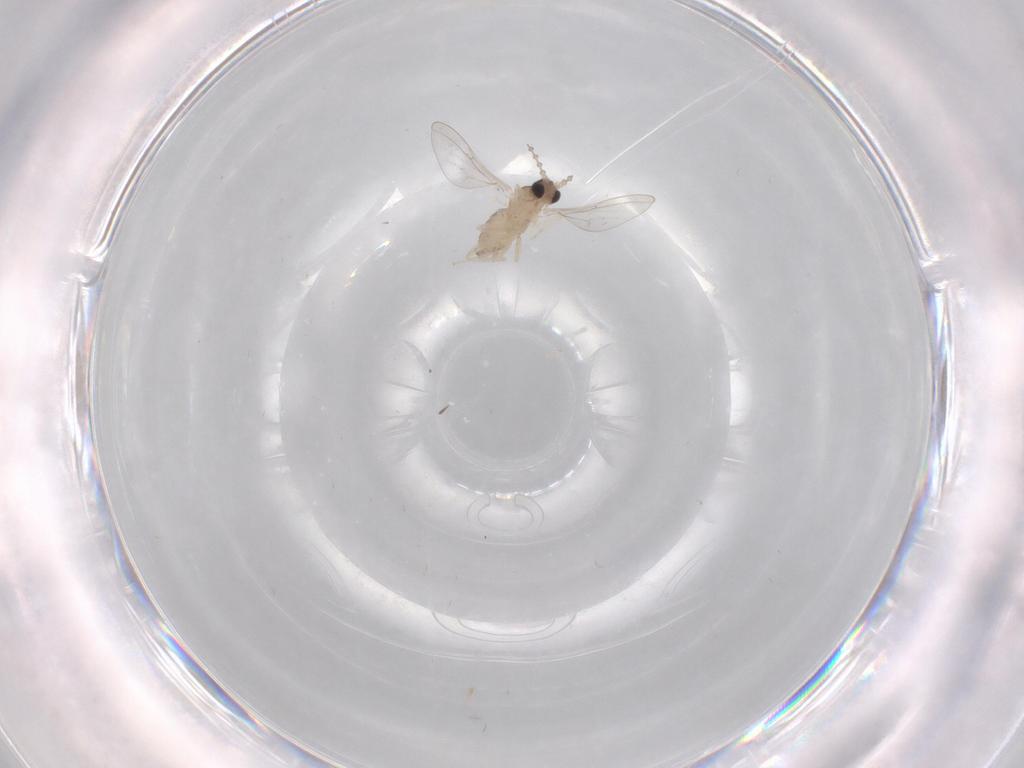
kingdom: Animalia
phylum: Arthropoda
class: Insecta
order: Diptera
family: Cecidomyiidae
